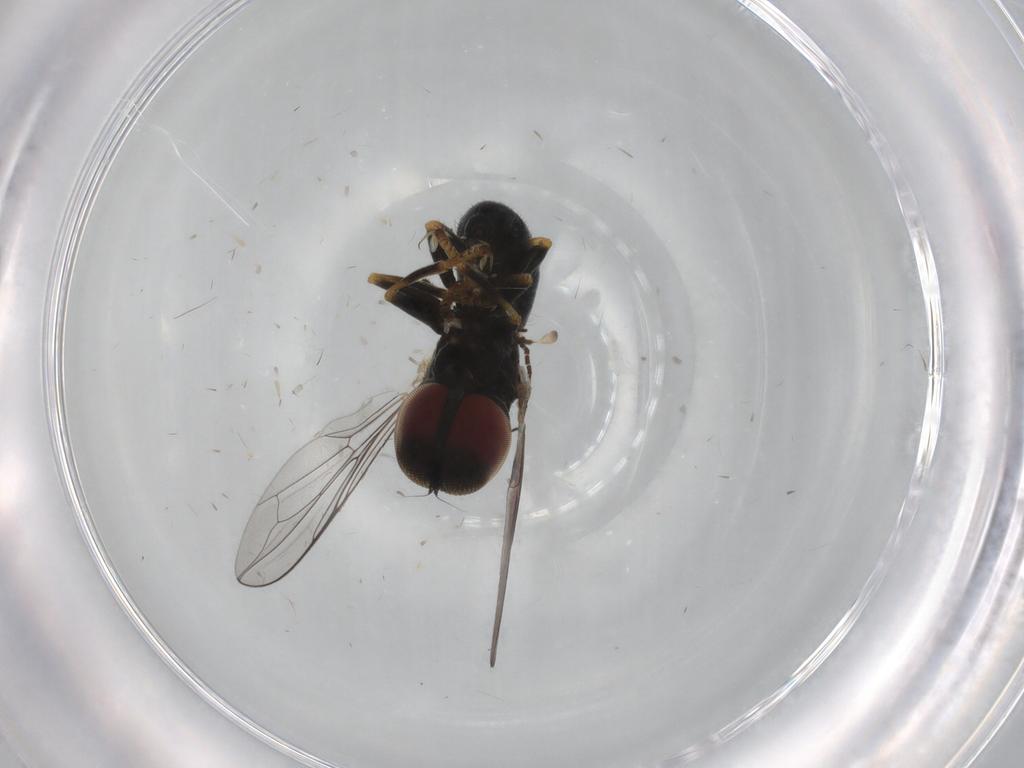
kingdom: Animalia
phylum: Arthropoda
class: Insecta
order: Diptera
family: Pipunculidae
